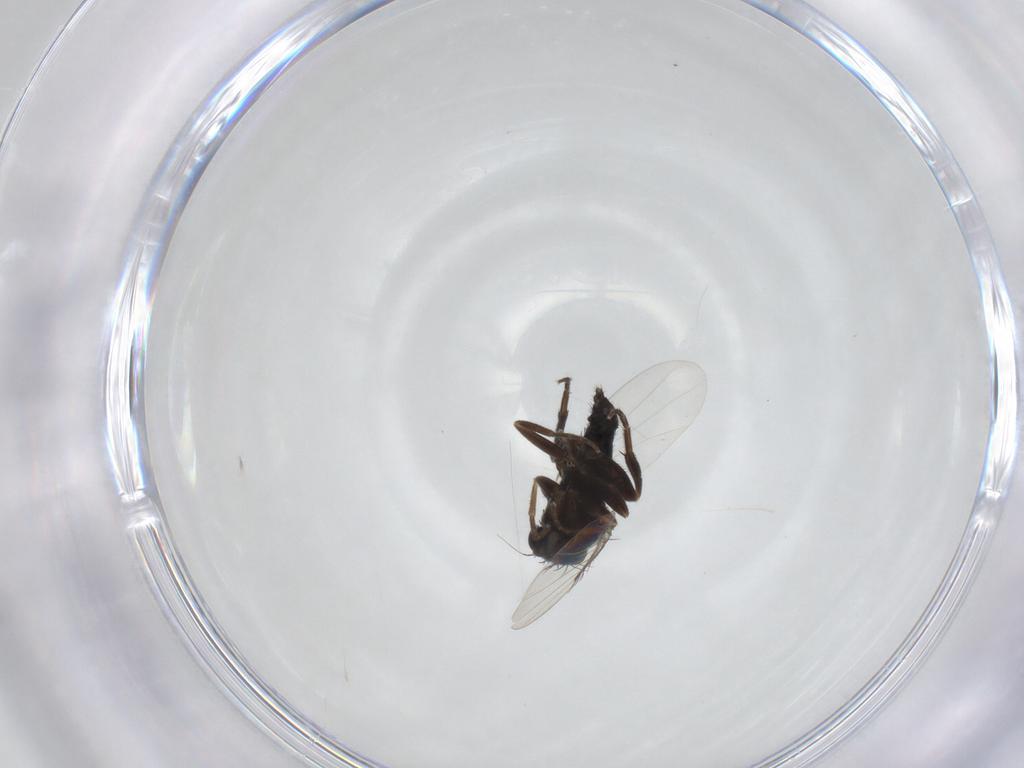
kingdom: Animalia
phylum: Arthropoda
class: Insecta
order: Diptera
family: Phoridae
